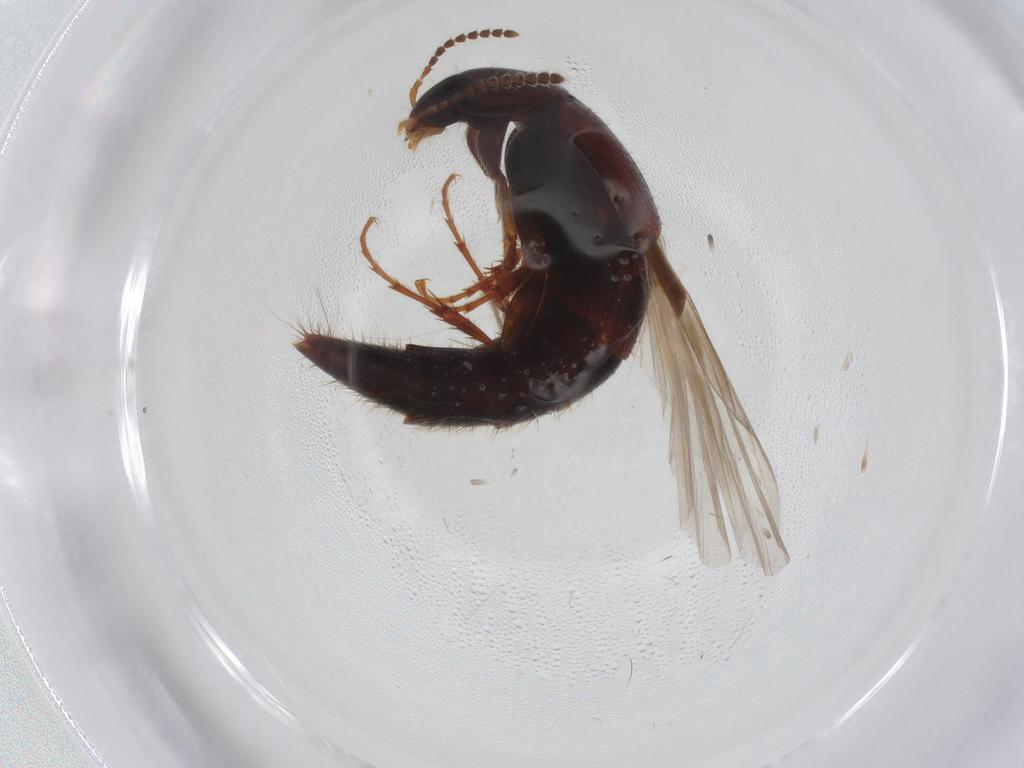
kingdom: Animalia
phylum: Arthropoda
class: Insecta
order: Coleoptera
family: Staphylinidae
